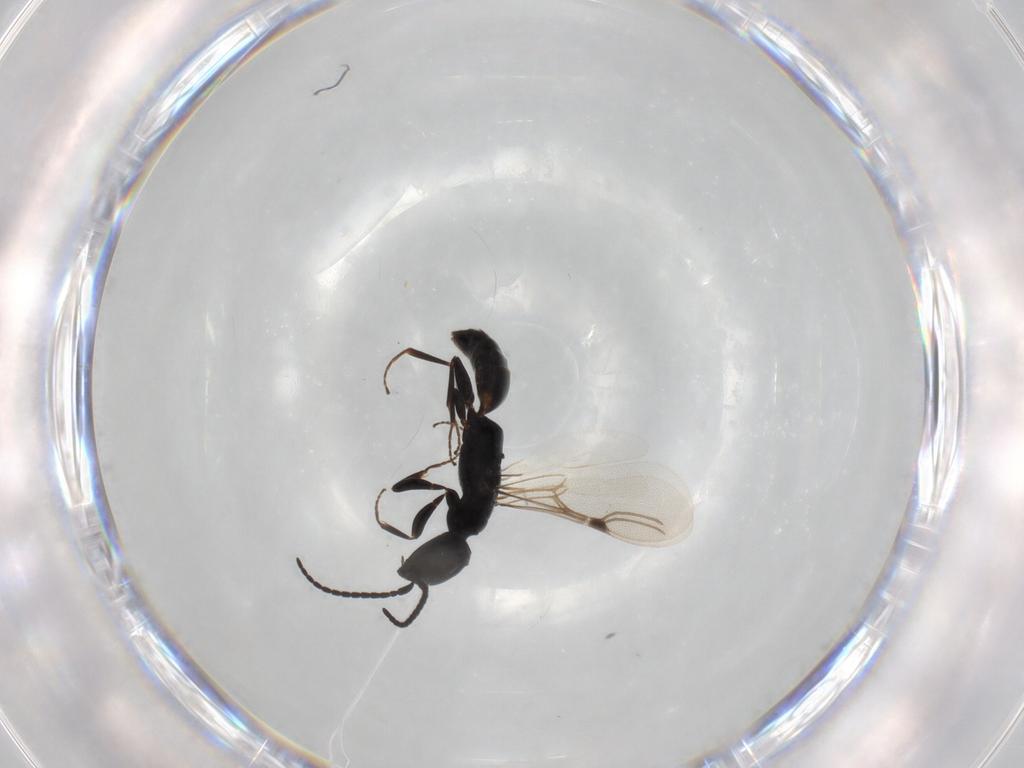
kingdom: Animalia
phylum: Arthropoda
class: Insecta
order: Hymenoptera
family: Bethylidae
